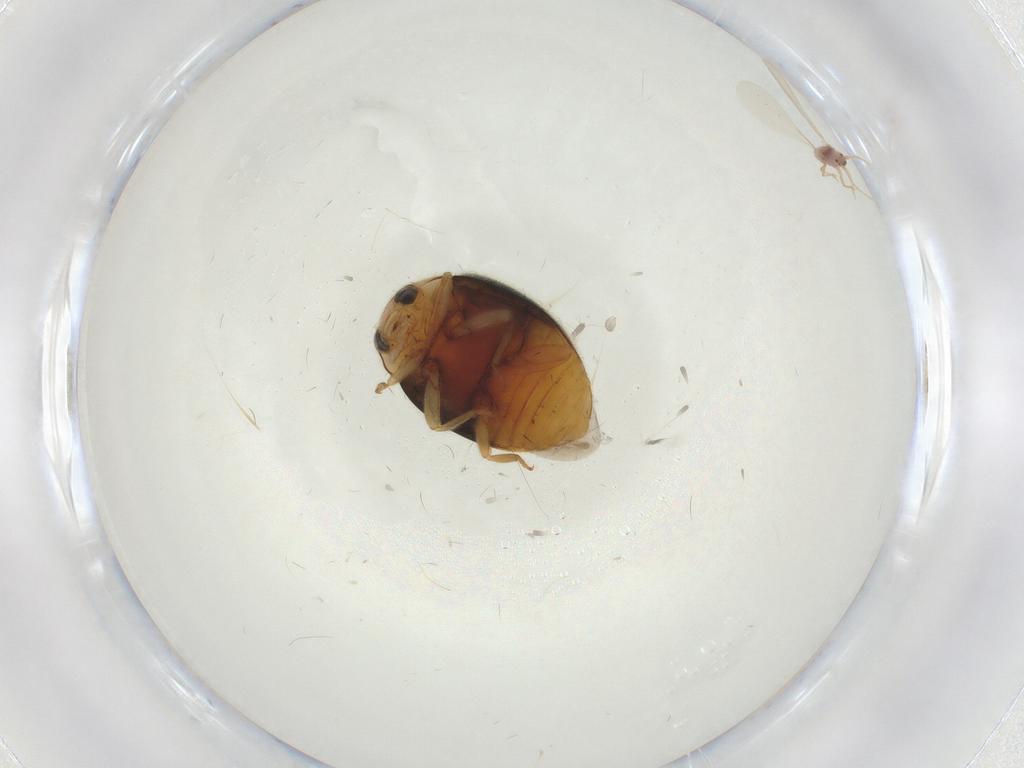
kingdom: Animalia
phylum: Arthropoda
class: Insecta
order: Coleoptera
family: Coccinellidae
